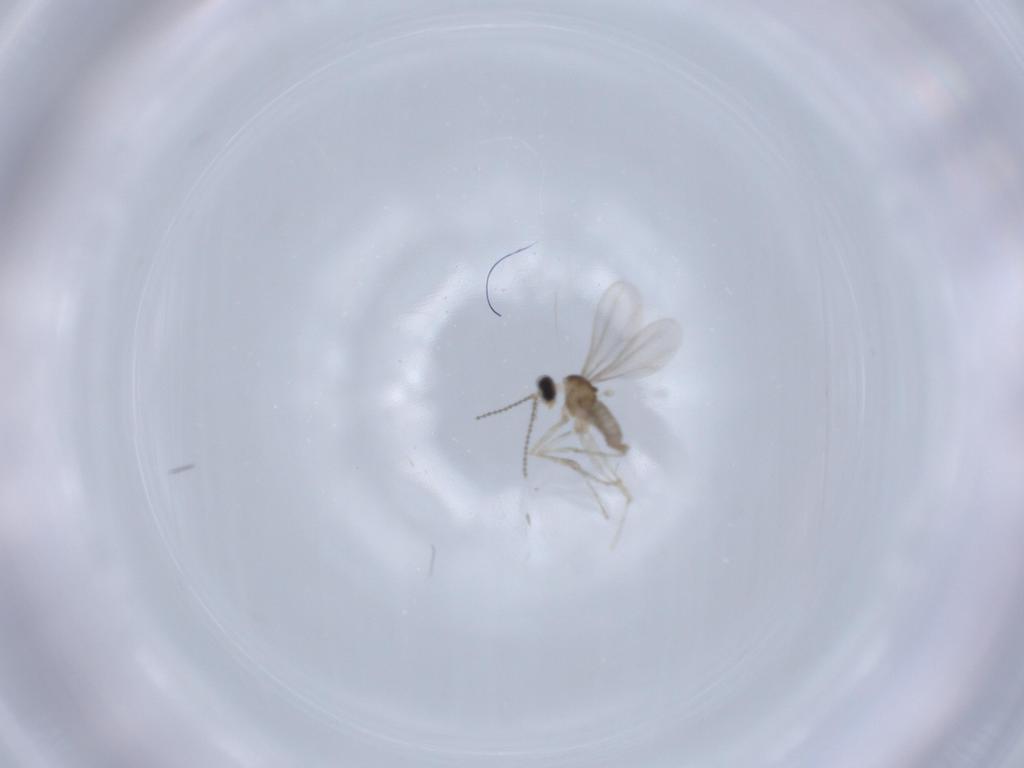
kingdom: Animalia
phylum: Arthropoda
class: Insecta
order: Diptera
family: Cecidomyiidae
